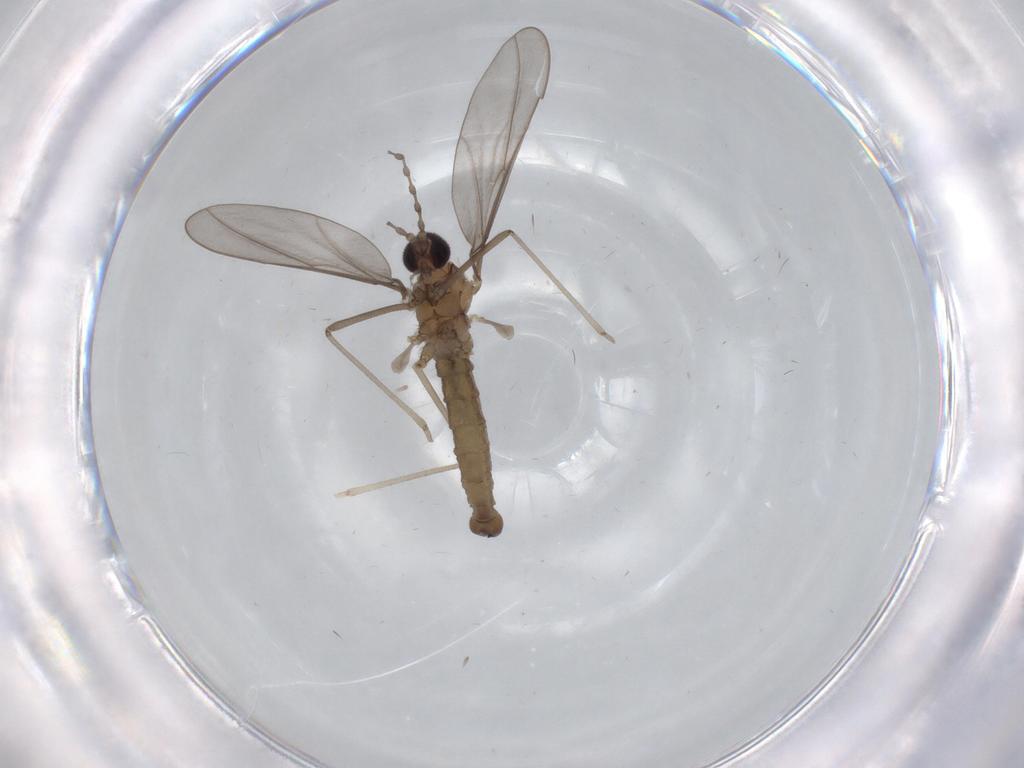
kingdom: Animalia
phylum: Arthropoda
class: Insecta
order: Diptera
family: Cecidomyiidae
